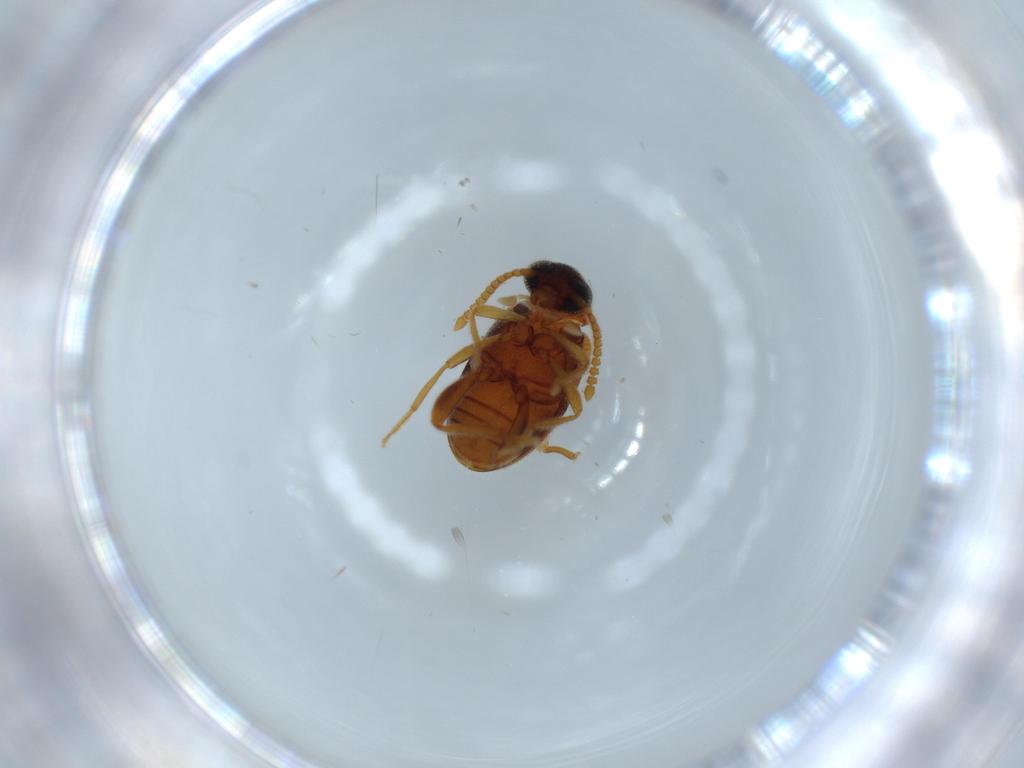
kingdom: Animalia
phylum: Arthropoda
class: Insecta
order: Coleoptera
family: Aderidae
